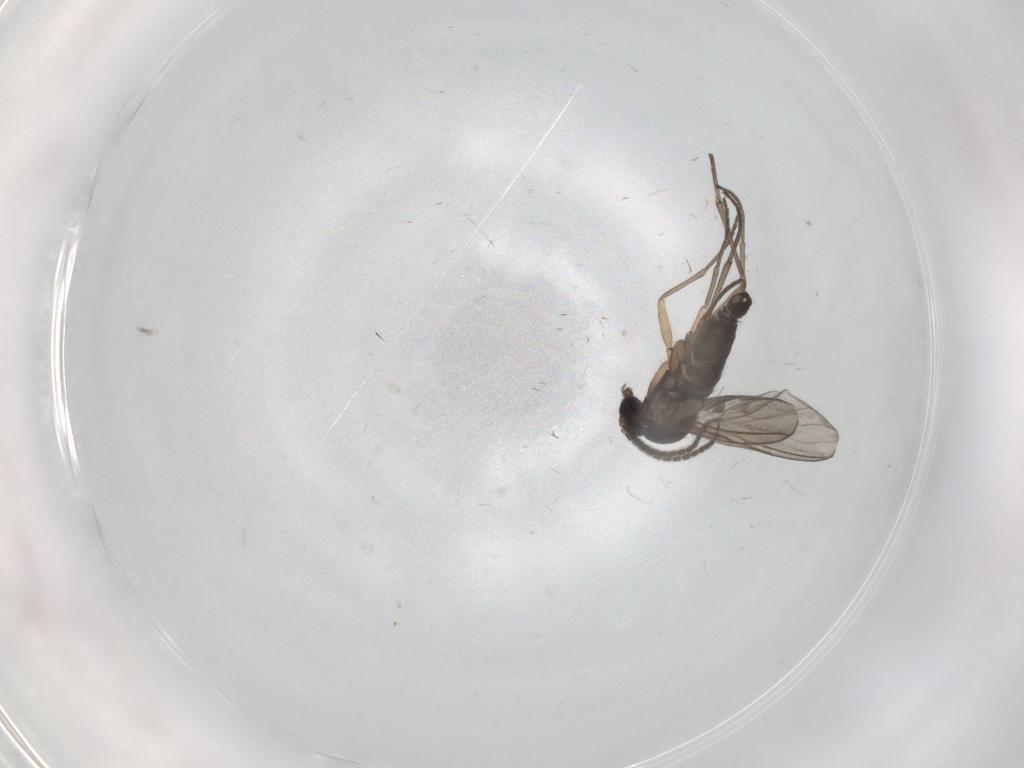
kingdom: Animalia
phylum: Arthropoda
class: Insecta
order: Diptera
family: Sciaridae
